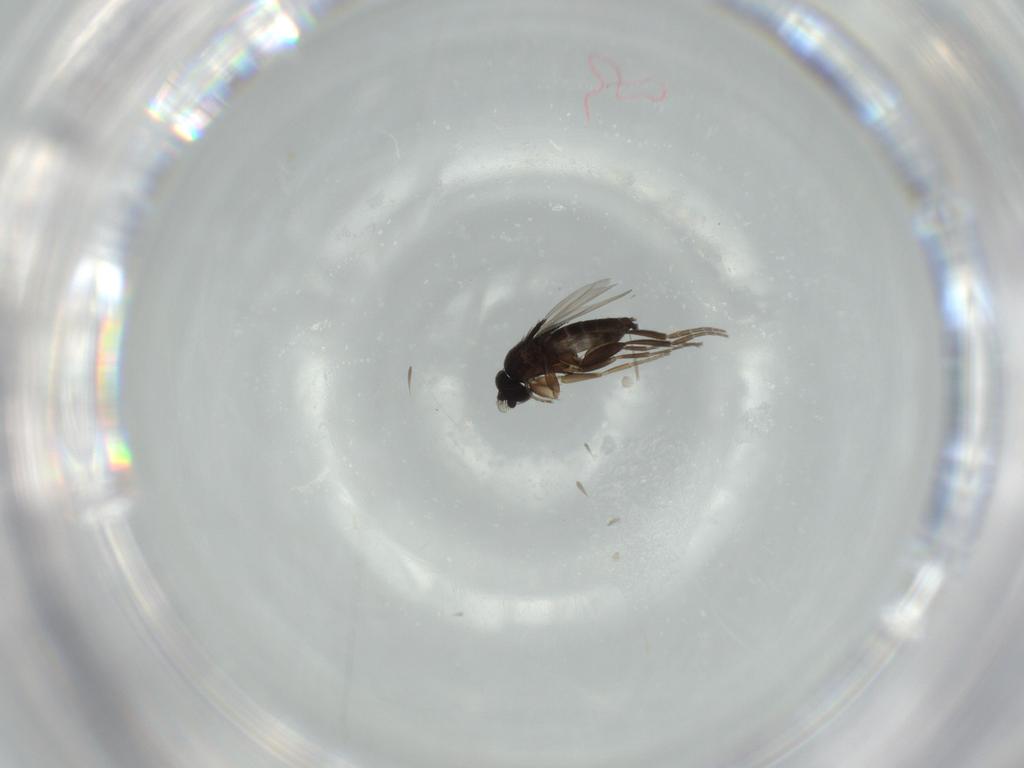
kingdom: Animalia
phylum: Arthropoda
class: Insecta
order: Diptera
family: Phoridae
